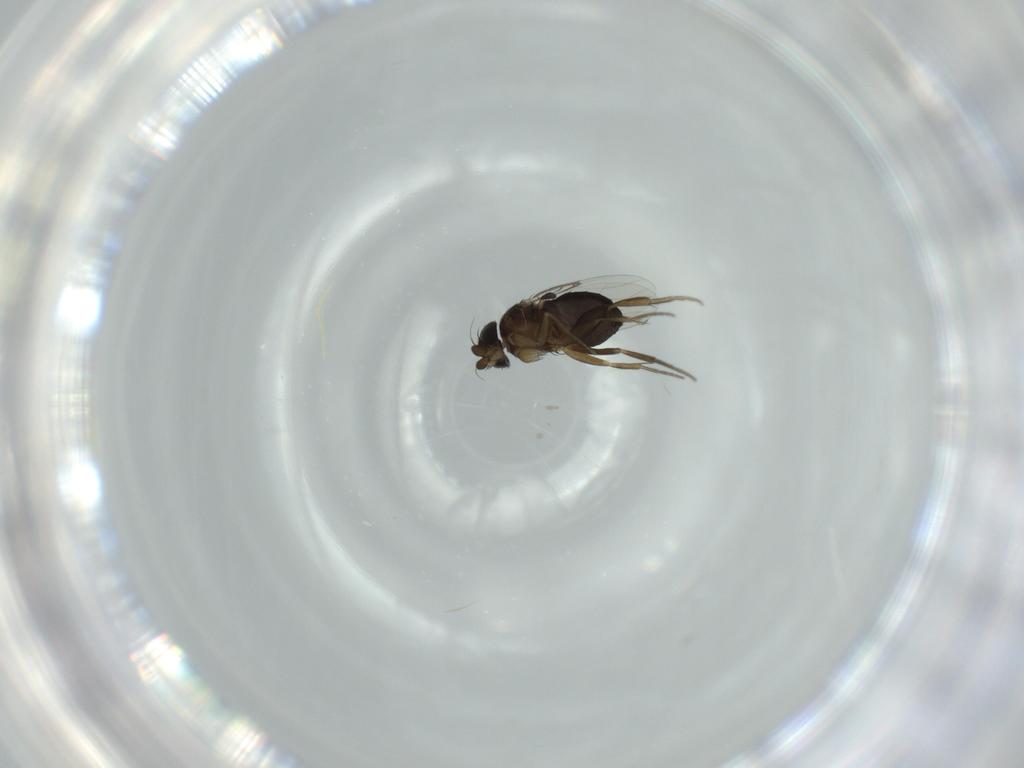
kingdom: Animalia
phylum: Arthropoda
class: Insecta
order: Diptera
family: Phoridae
